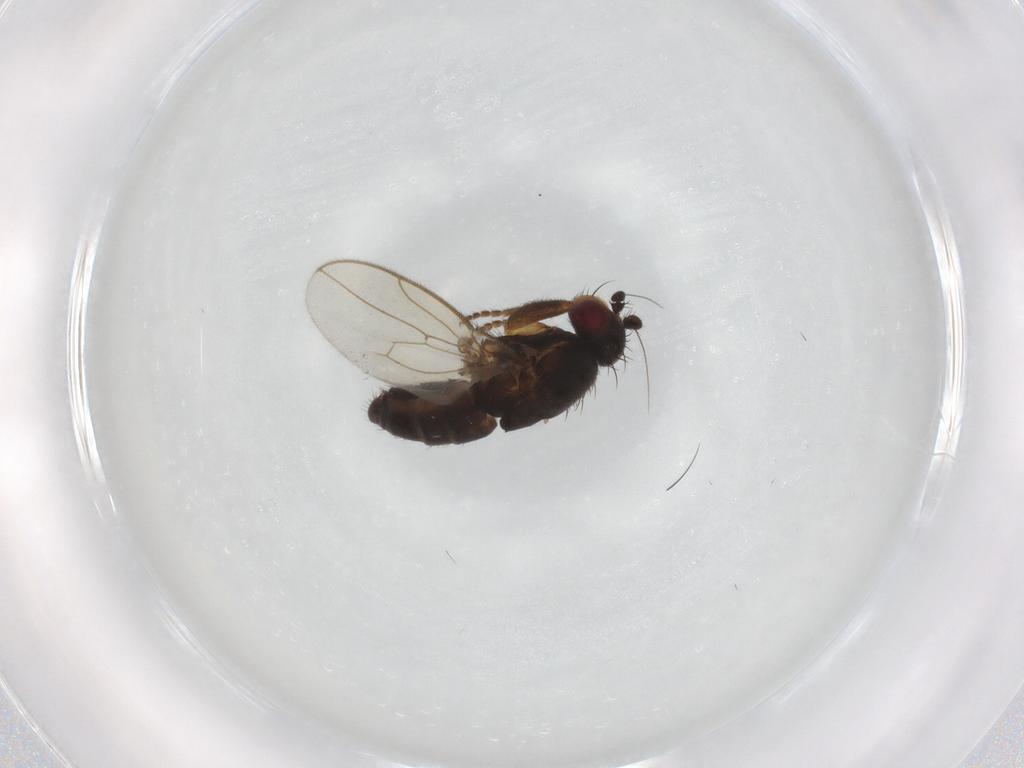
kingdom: Animalia
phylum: Arthropoda
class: Insecta
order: Diptera
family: Sphaeroceridae
